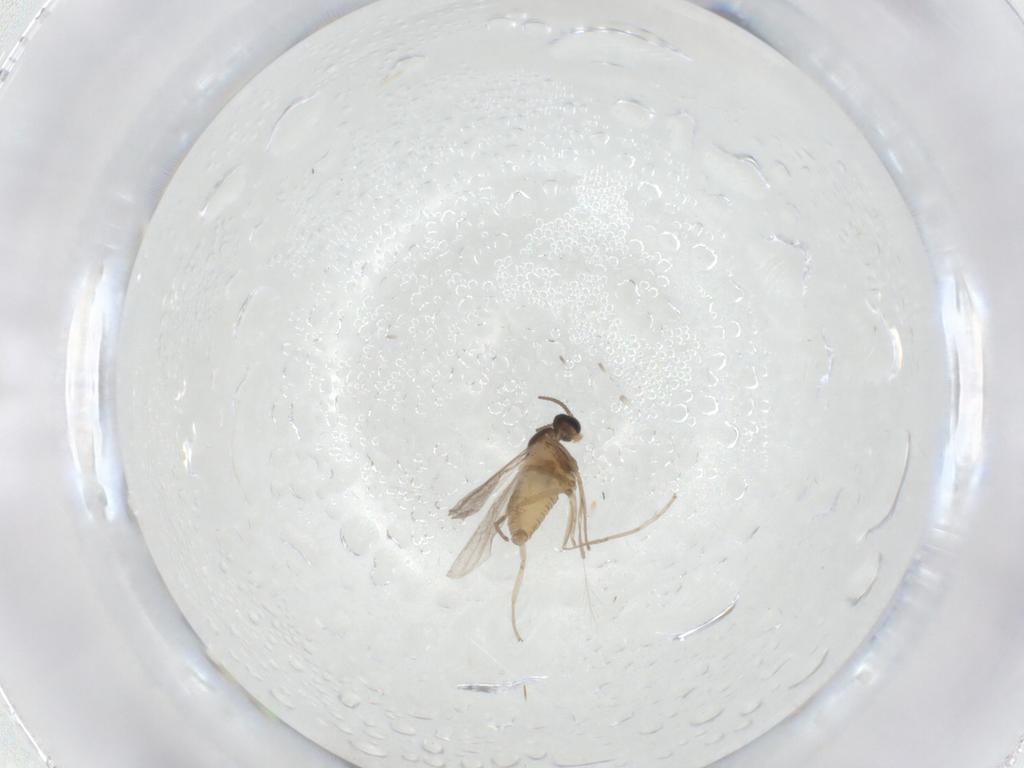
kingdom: Animalia
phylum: Arthropoda
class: Insecta
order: Diptera
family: Cecidomyiidae
